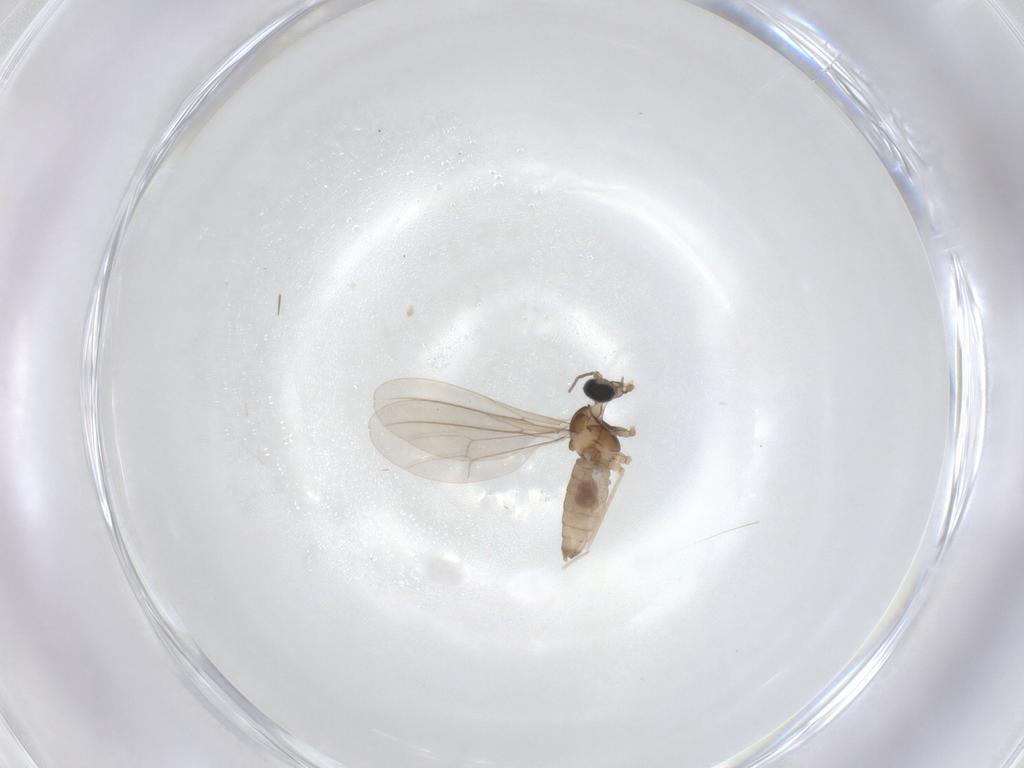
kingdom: Animalia
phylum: Arthropoda
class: Insecta
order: Diptera
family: Cecidomyiidae
